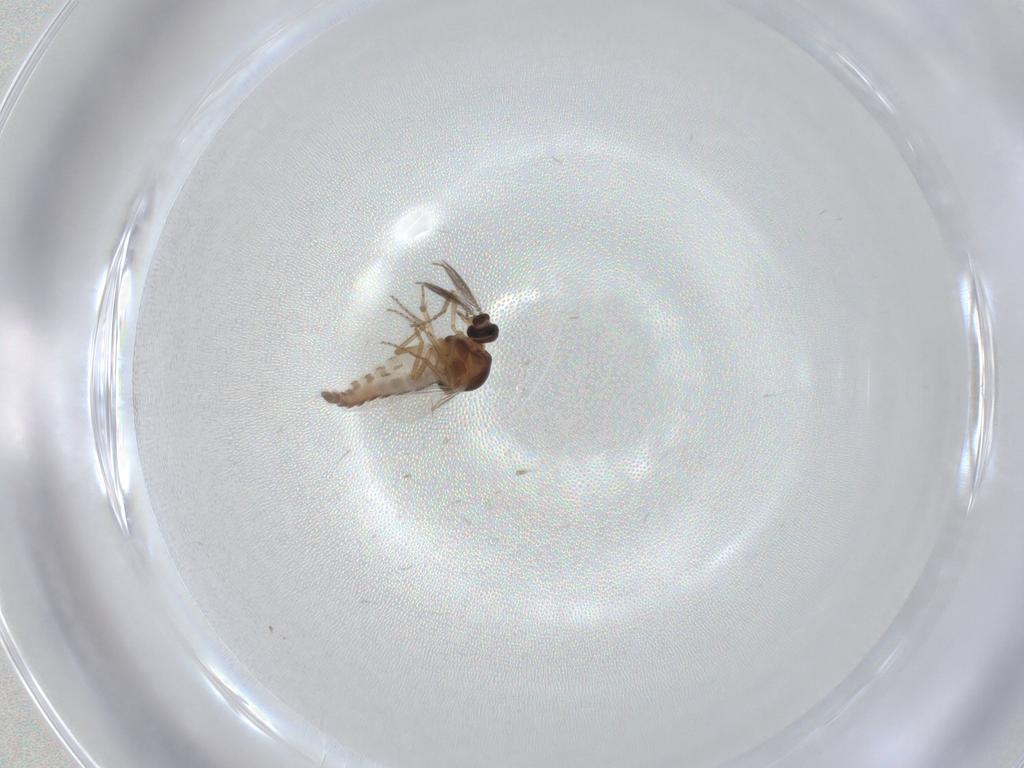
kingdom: Animalia
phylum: Arthropoda
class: Insecta
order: Diptera
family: Ceratopogonidae
